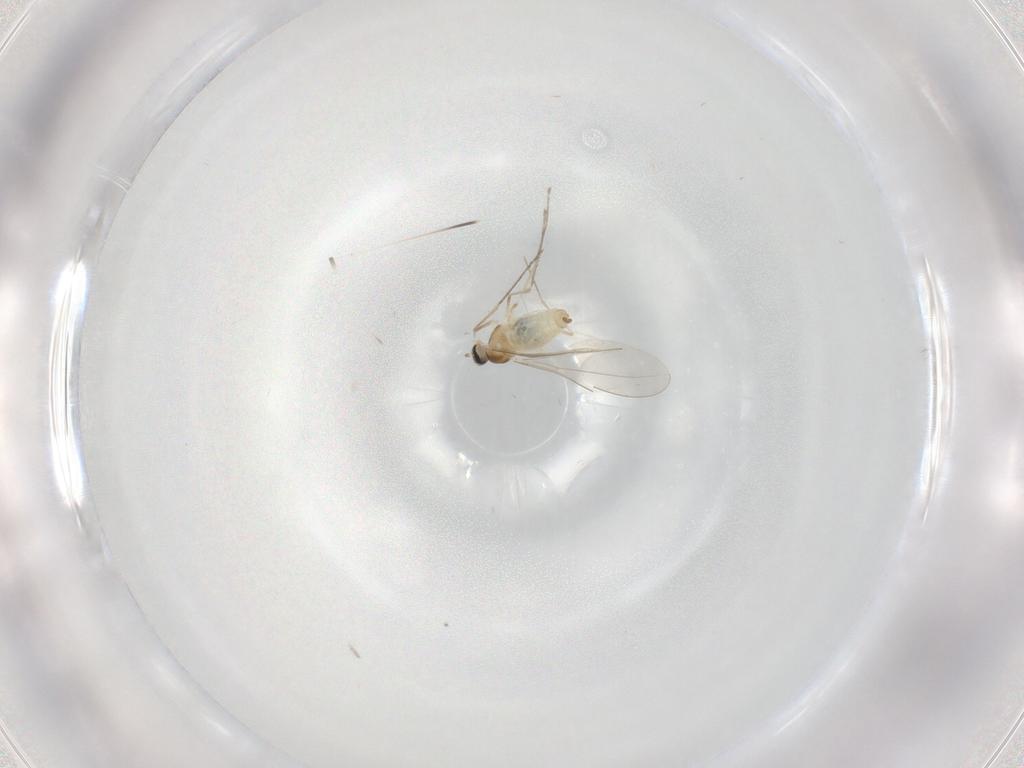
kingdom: Animalia
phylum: Arthropoda
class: Insecta
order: Diptera
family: Cecidomyiidae
